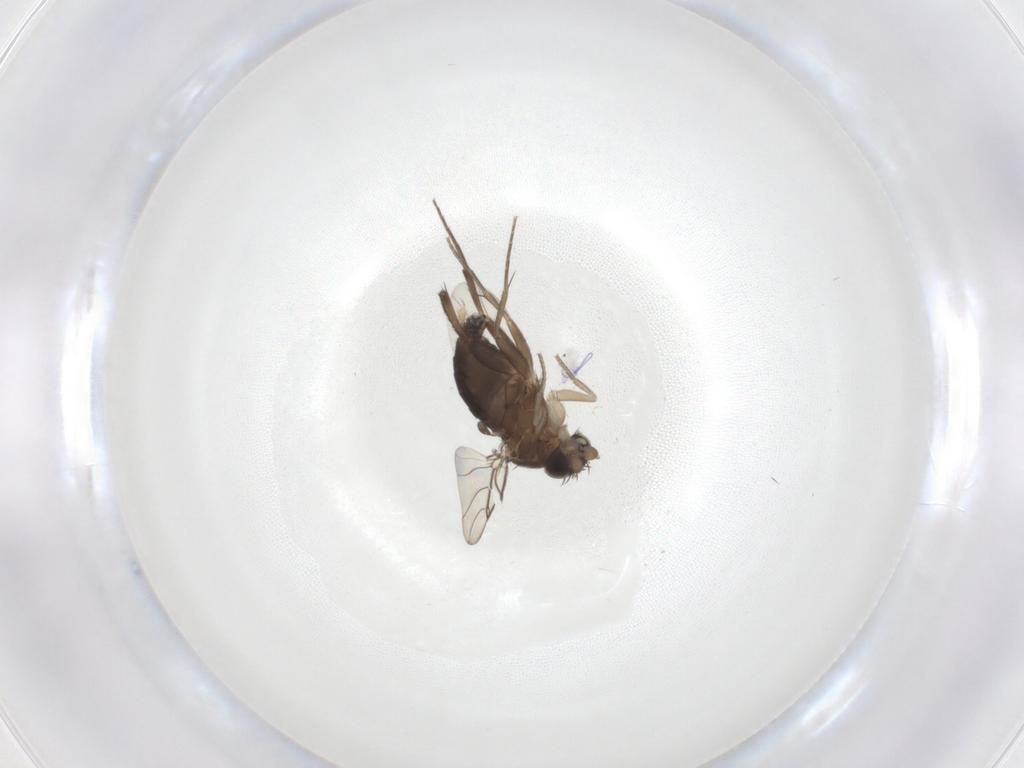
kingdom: Animalia
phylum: Arthropoda
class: Insecta
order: Diptera
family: Phoridae
